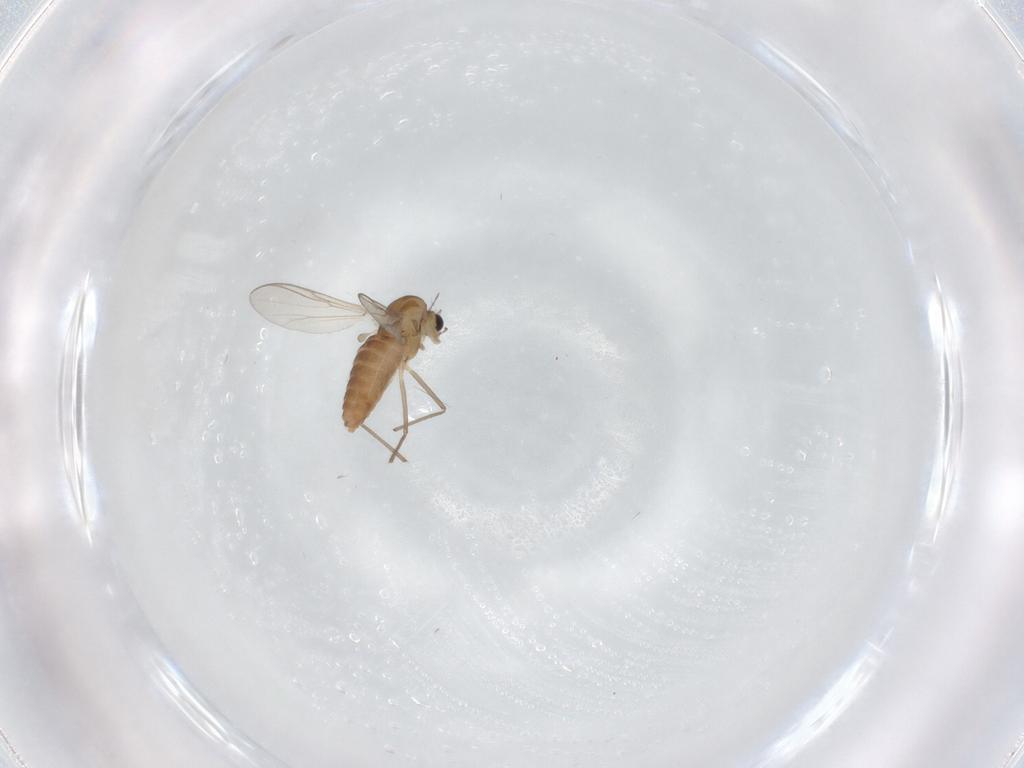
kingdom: Animalia
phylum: Arthropoda
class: Insecta
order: Diptera
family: Chironomidae
